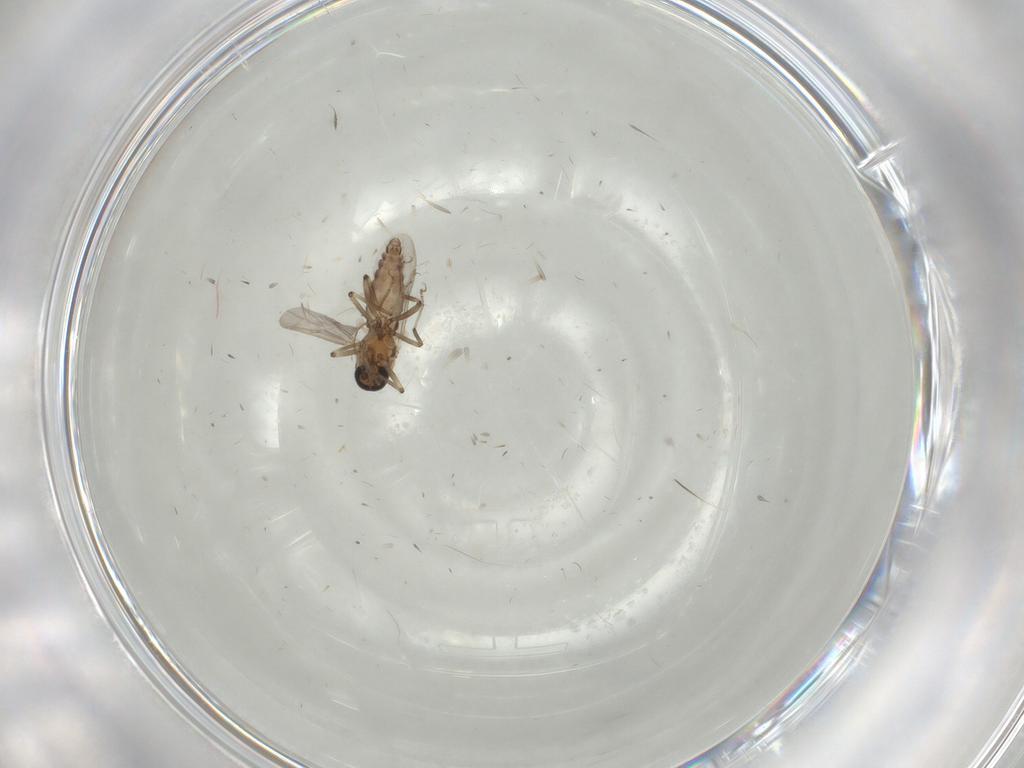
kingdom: Animalia
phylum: Arthropoda
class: Insecta
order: Diptera
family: Ceratopogonidae
